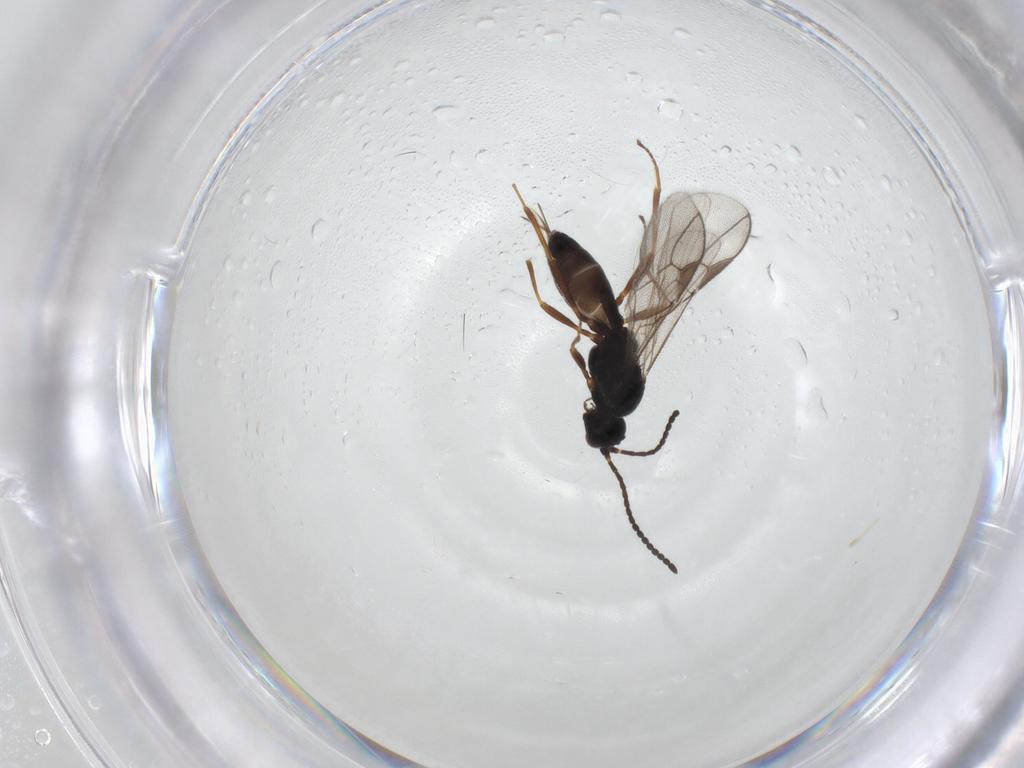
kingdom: Animalia
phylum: Arthropoda
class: Insecta
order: Hymenoptera
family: Braconidae
